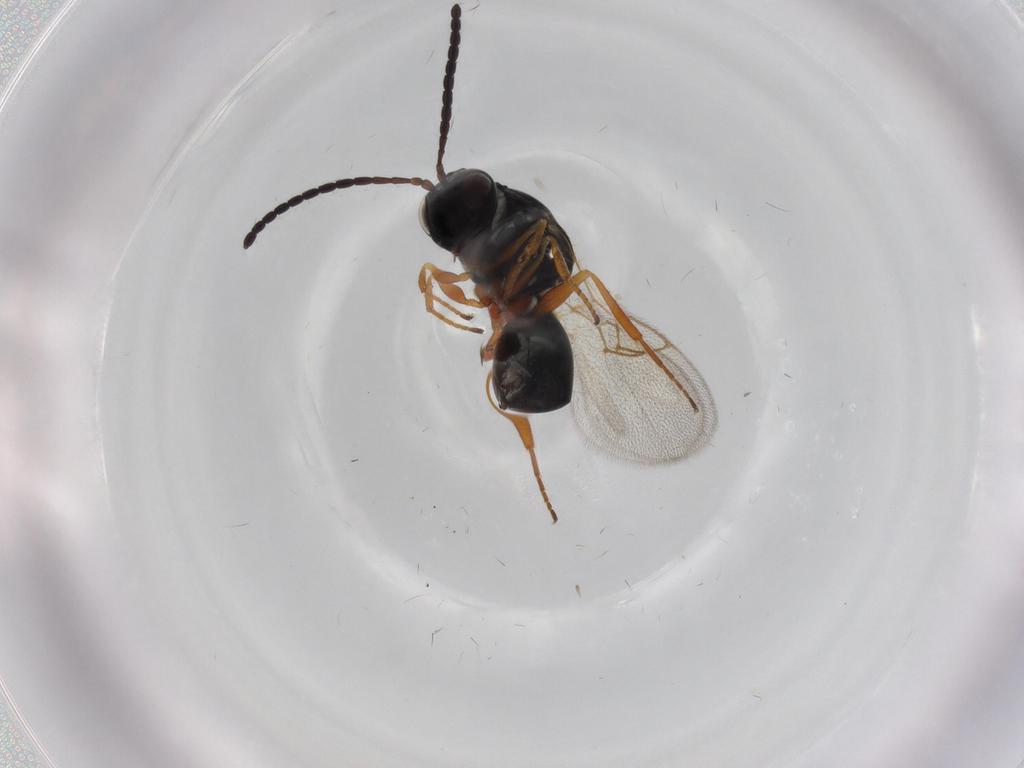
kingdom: Animalia
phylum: Arthropoda
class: Insecta
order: Hymenoptera
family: Figitidae
